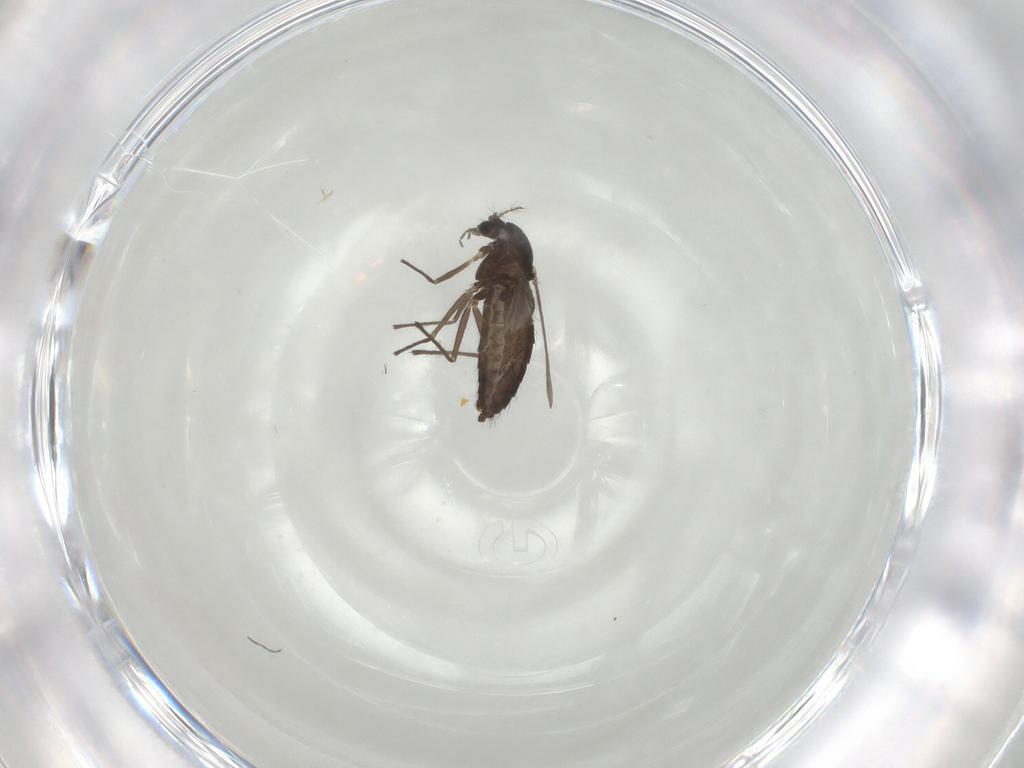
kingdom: Animalia
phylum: Arthropoda
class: Insecta
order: Diptera
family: Chironomidae
